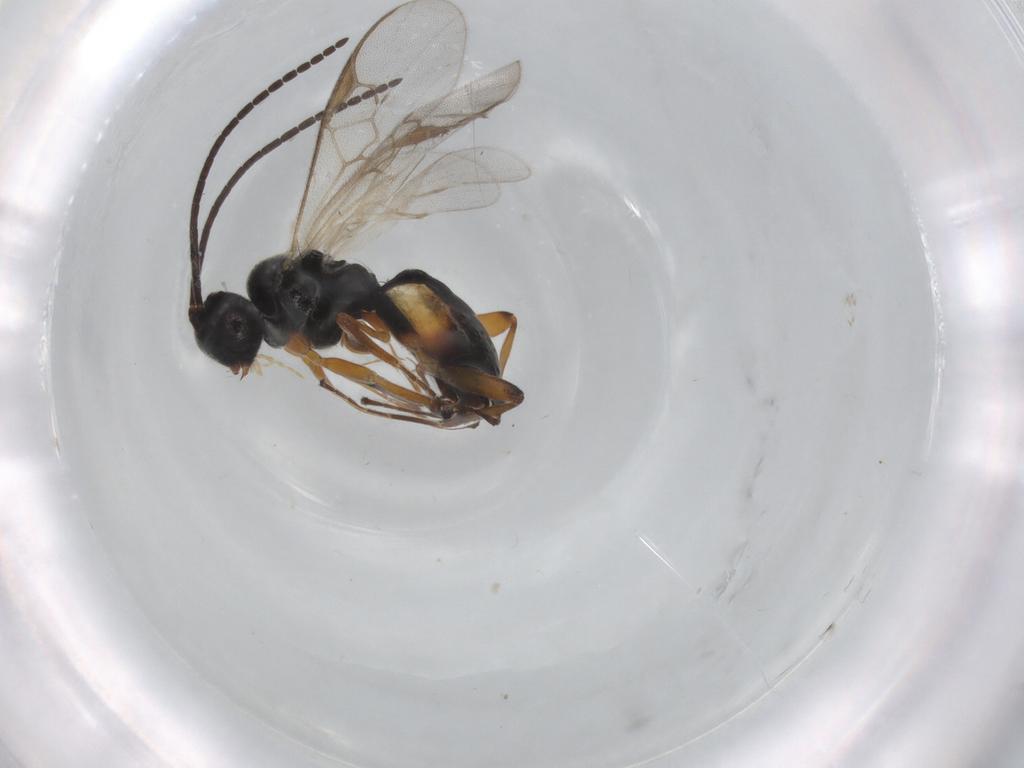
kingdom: Animalia
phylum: Arthropoda
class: Insecta
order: Hymenoptera
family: Braconidae
